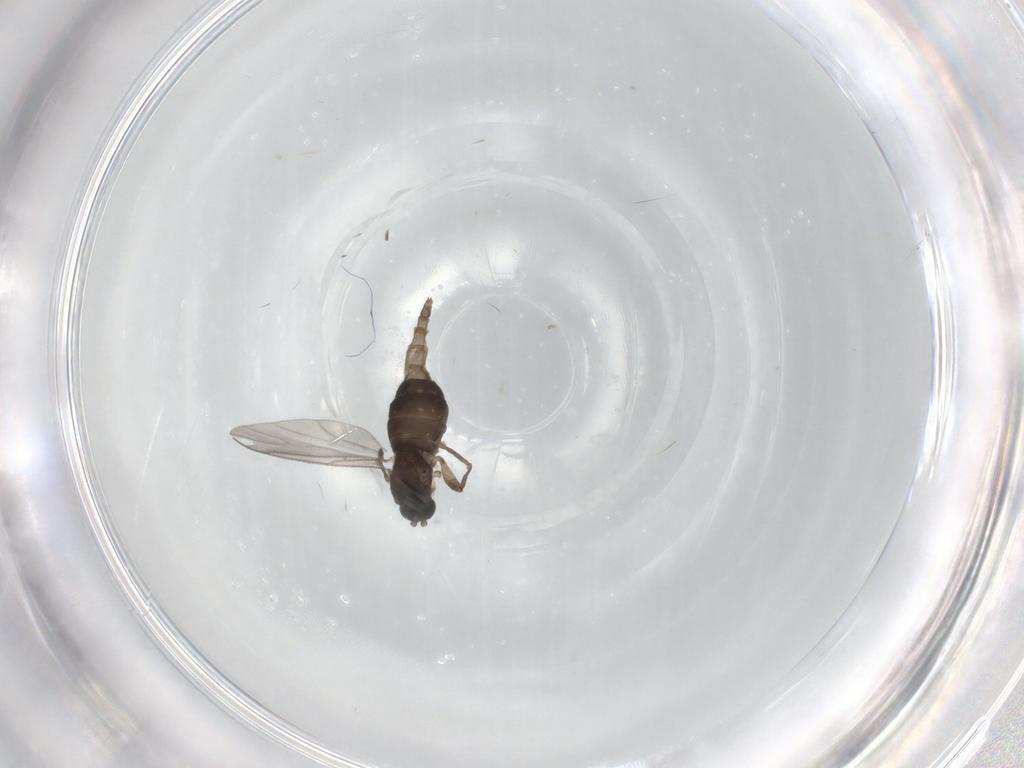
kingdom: Animalia
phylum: Arthropoda
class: Insecta
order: Diptera
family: Sciaridae
